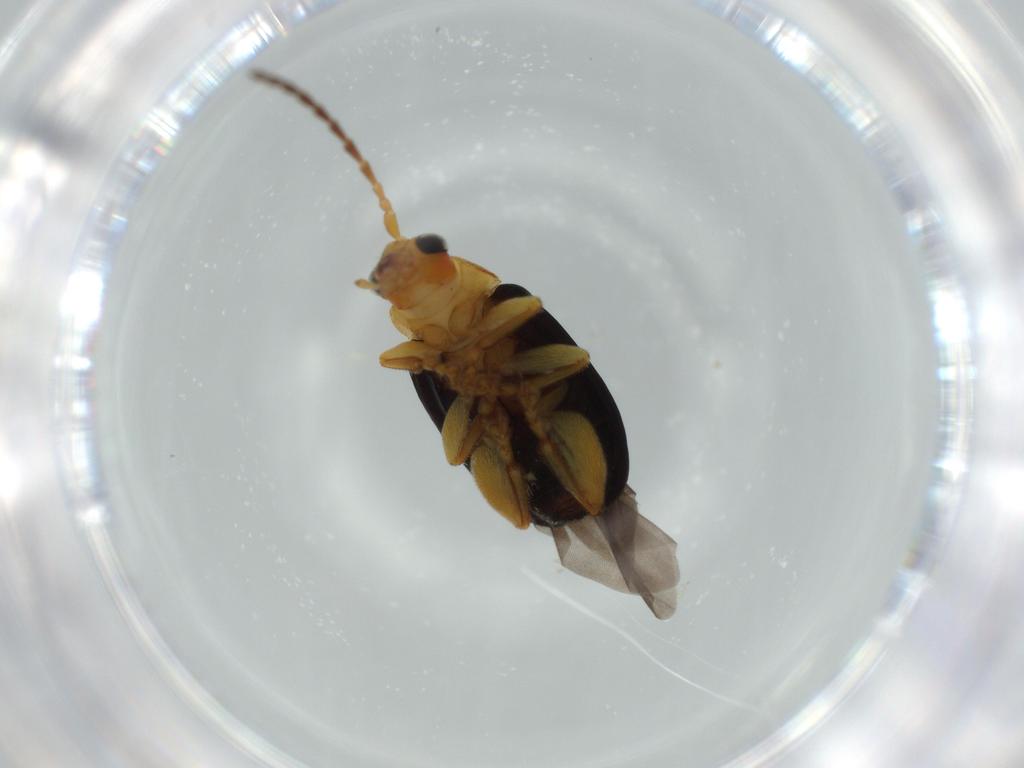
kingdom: Animalia
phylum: Arthropoda
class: Insecta
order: Coleoptera
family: Chrysomelidae
